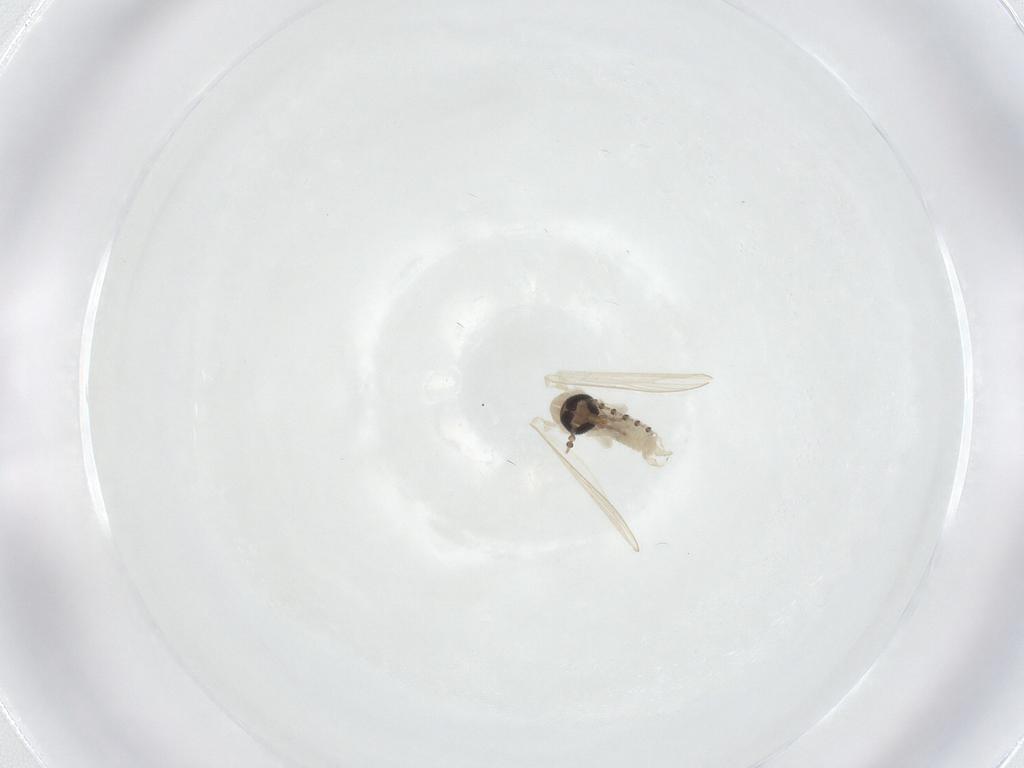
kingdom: Animalia
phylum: Arthropoda
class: Insecta
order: Diptera
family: Psychodidae
